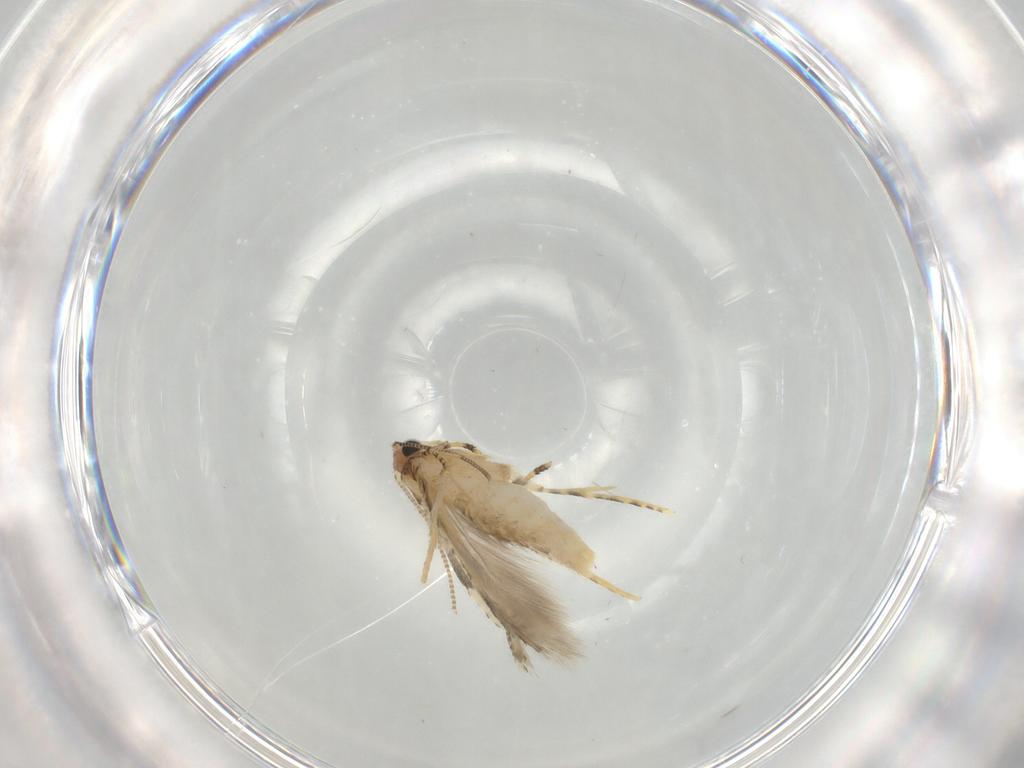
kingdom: Animalia
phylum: Arthropoda
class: Insecta
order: Lepidoptera
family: Tineidae
